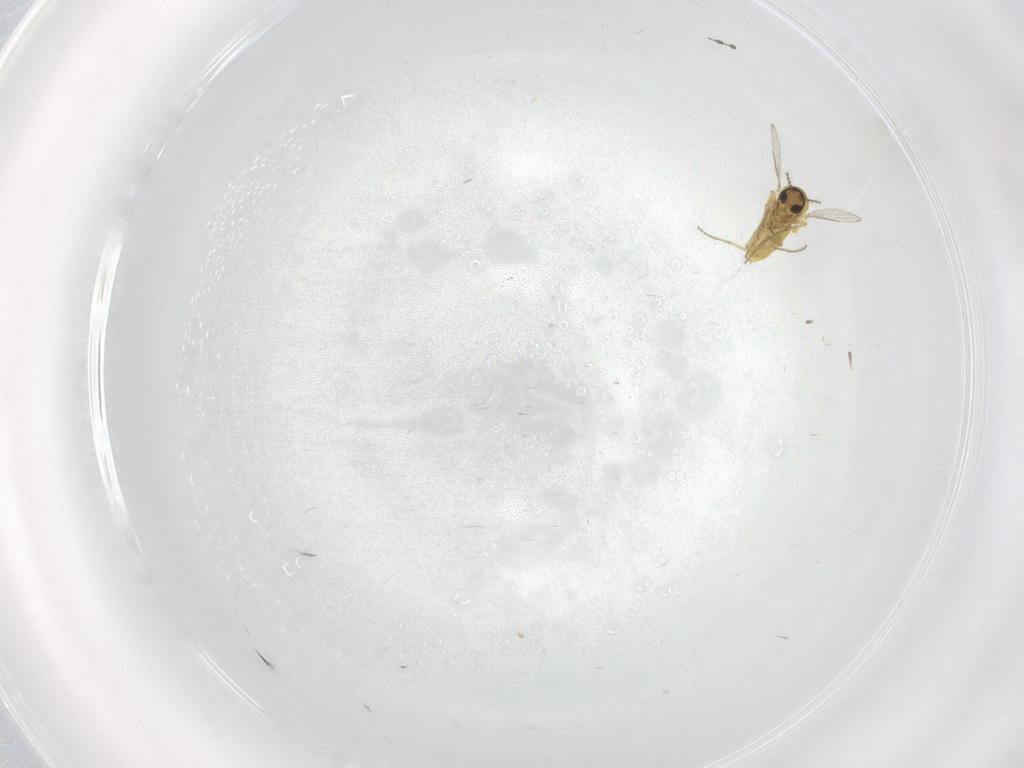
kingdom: Animalia
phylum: Arthropoda
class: Insecta
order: Diptera
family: Ceratopogonidae
